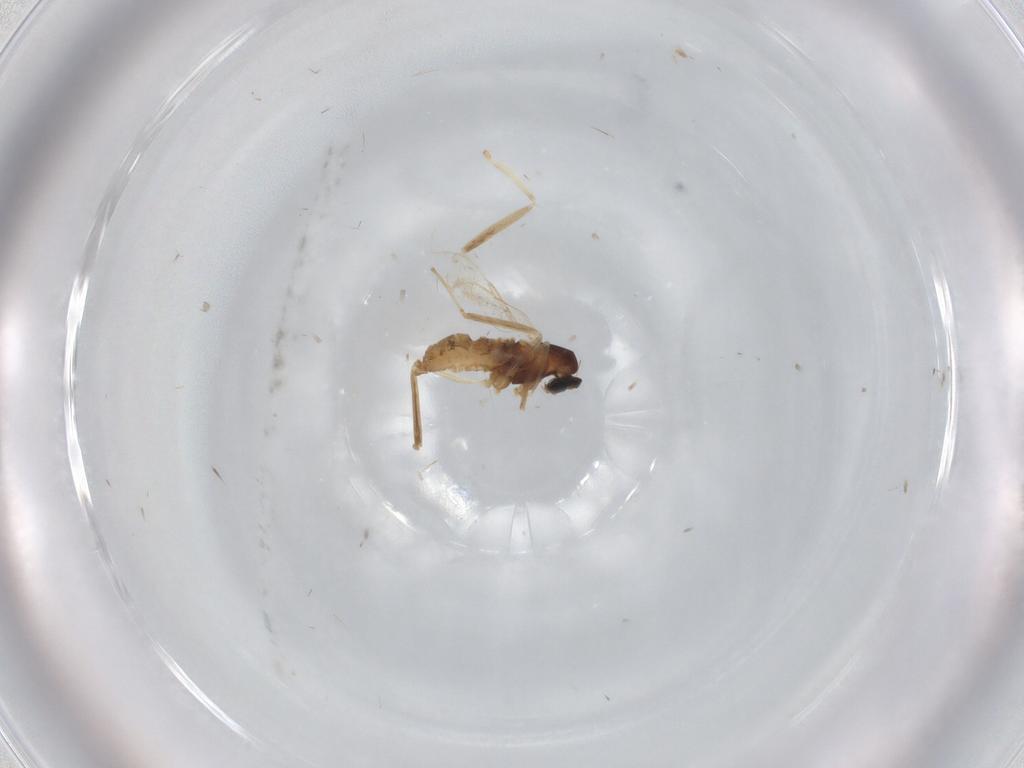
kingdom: Animalia
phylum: Arthropoda
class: Insecta
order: Diptera
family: Cecidomyiidae
